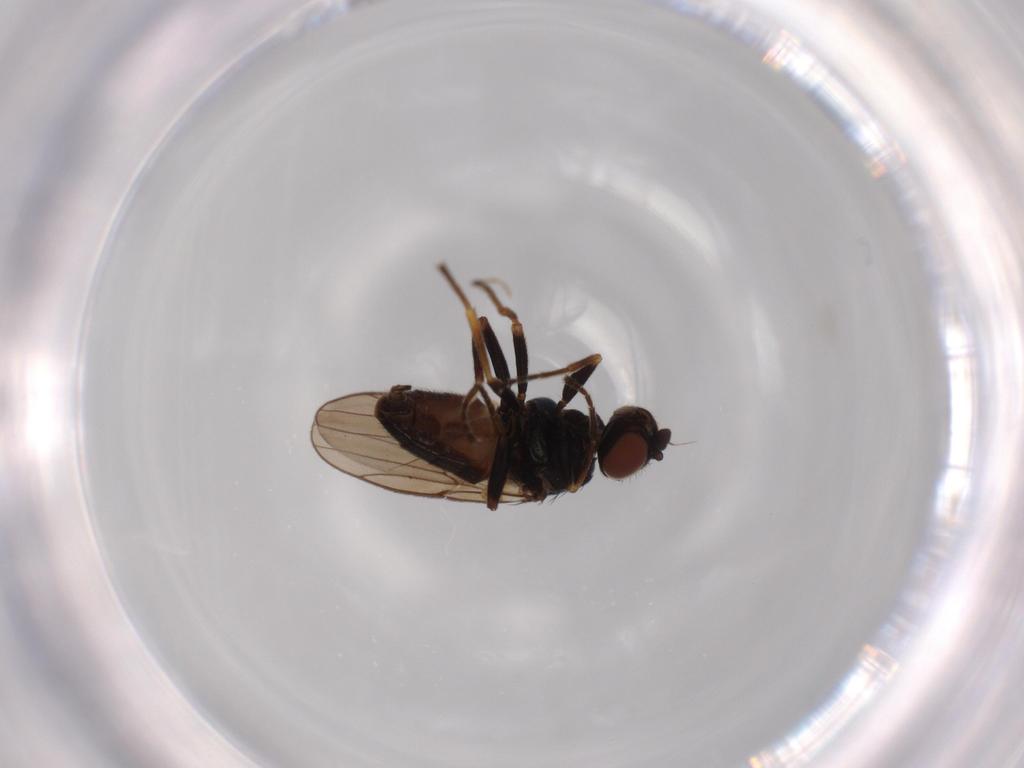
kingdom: Animalia
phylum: Arthropoda
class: Insecta
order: Diptera
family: Chloropidae
